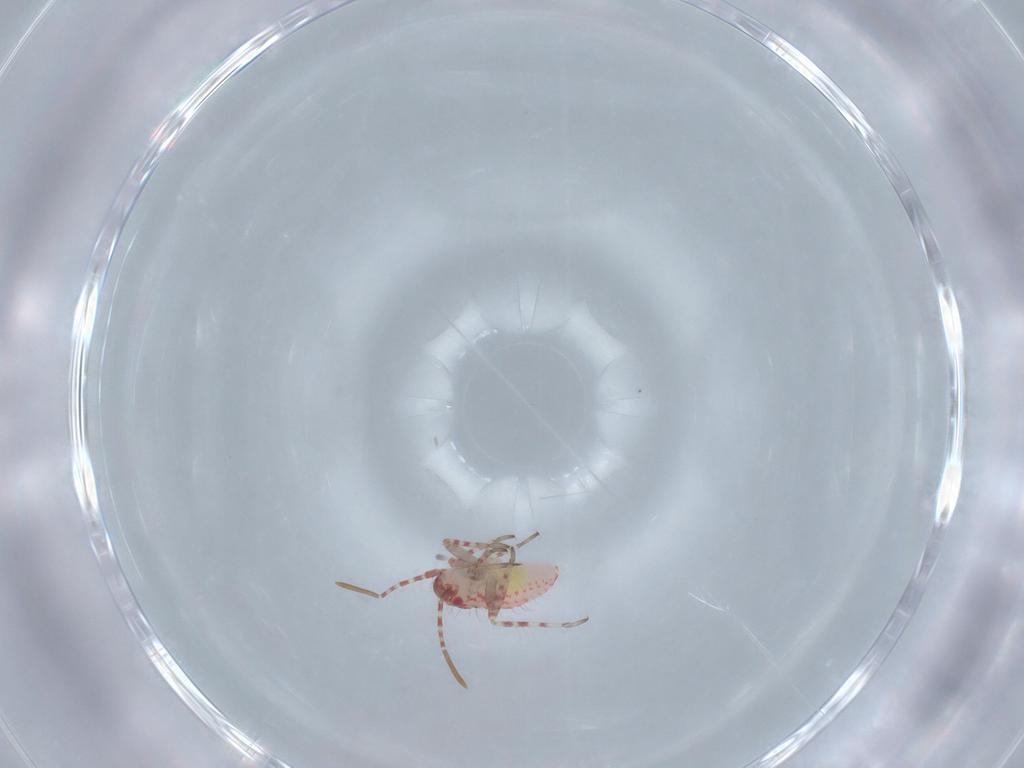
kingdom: Animalia
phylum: Arthropoda
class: Insecta
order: Hemiptera
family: Miridae
